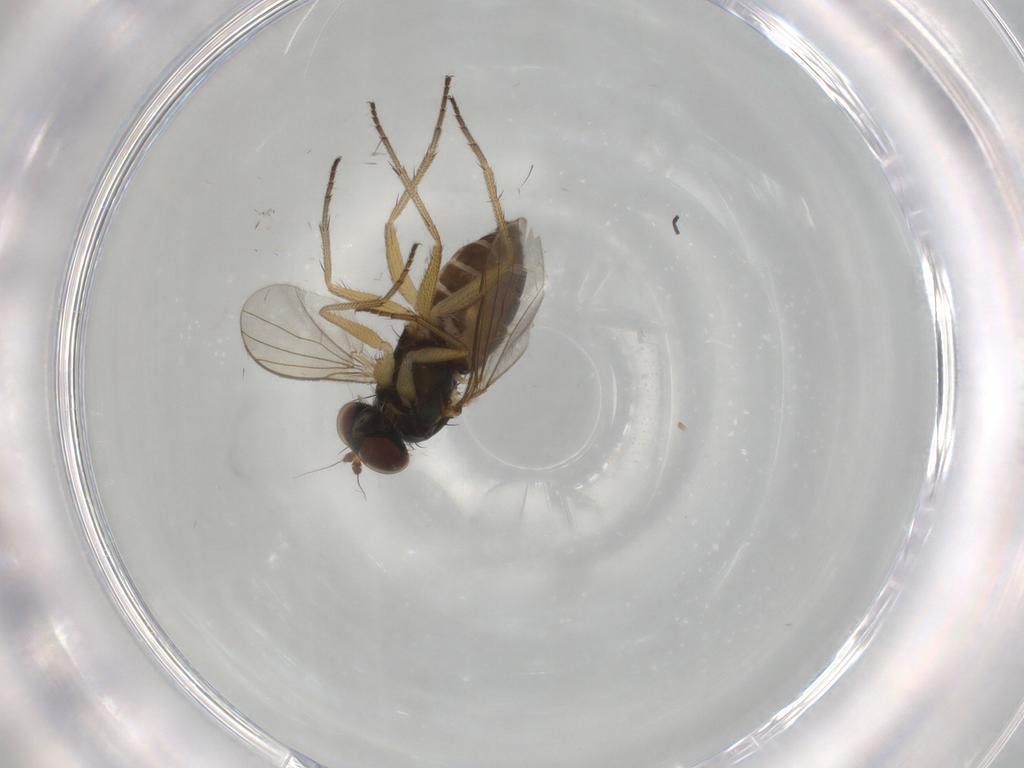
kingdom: Animalia
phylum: Arthropoda
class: Insecta
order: Diptera
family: Dolichopodidae
